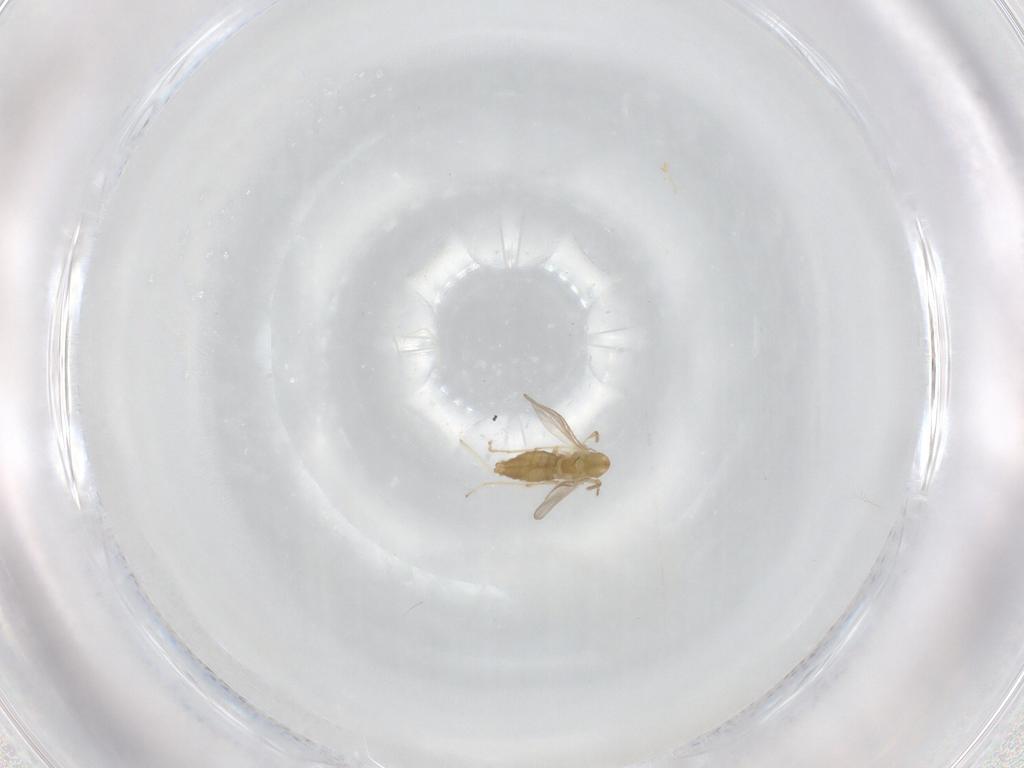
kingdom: Animalia
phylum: Arthropoda
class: Insecta
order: Diptera
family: Chironomidae
